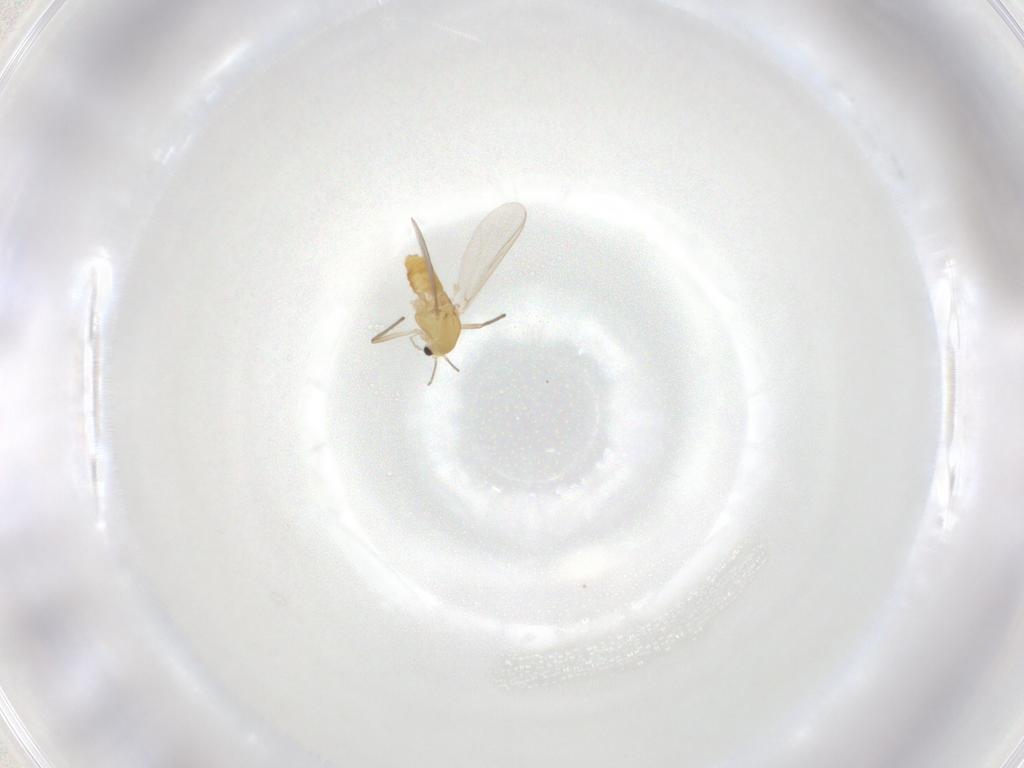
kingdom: Animalia
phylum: Arthropoda
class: Insecta
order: Diptera
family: Chironomidae
